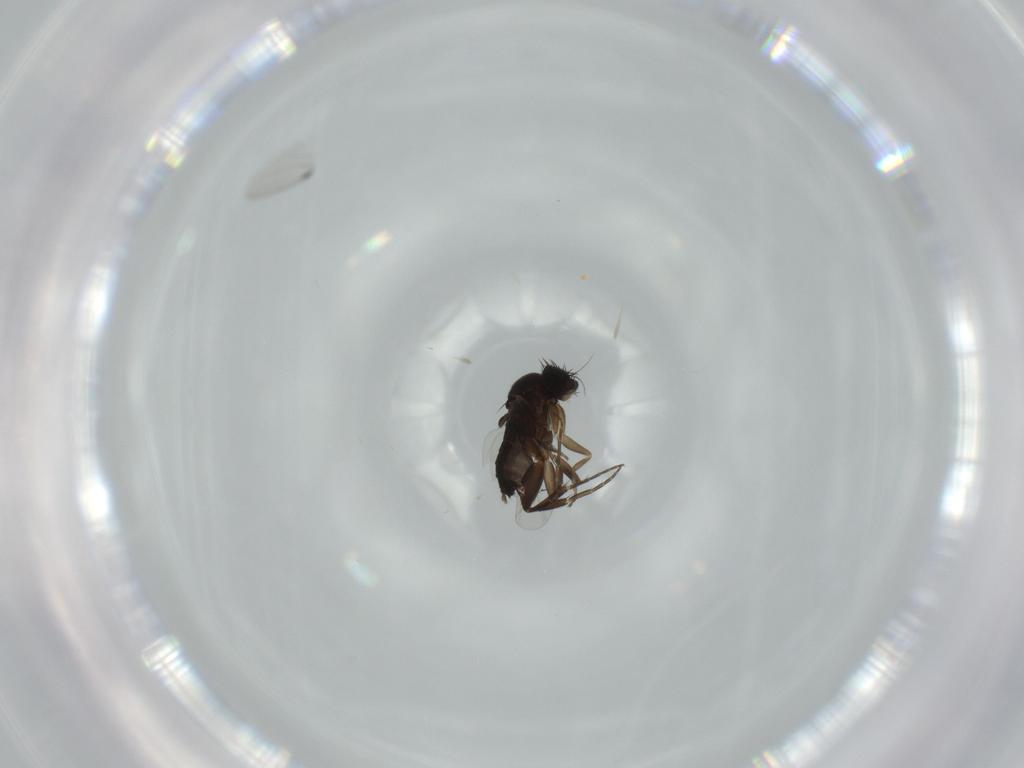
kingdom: Animalia
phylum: Arthropoda
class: Insecta
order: Diptera
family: Phoridae
